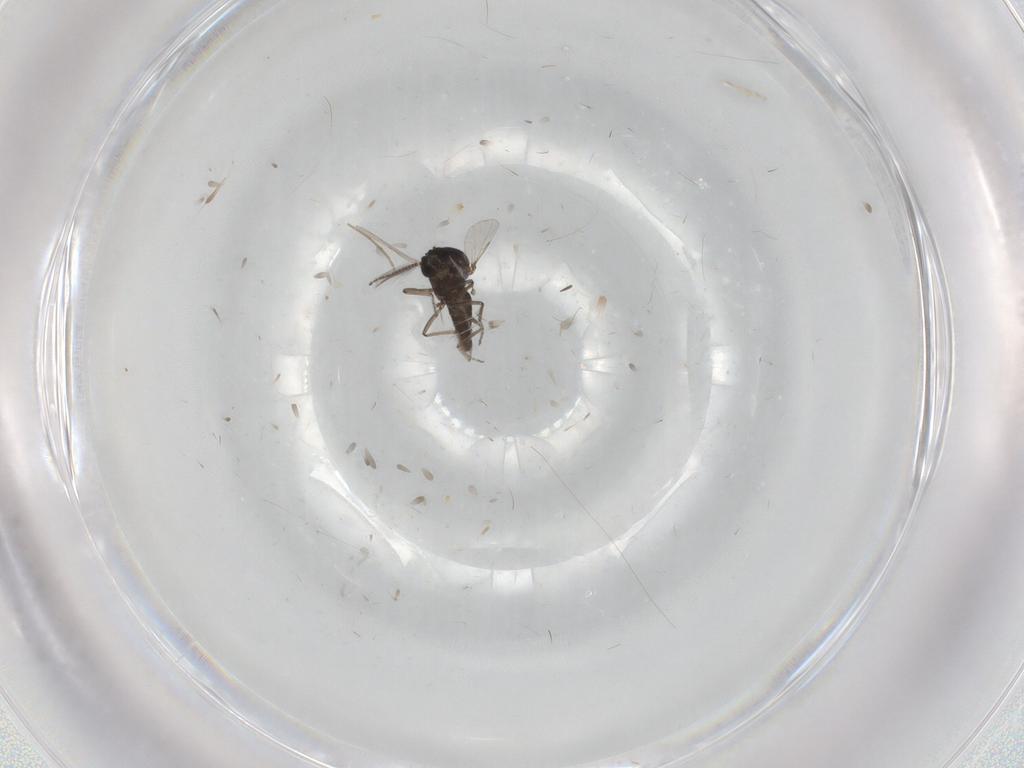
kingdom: Animalia
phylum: Arthropoda
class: Insecta
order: Diptera
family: Ceratopogonidae
